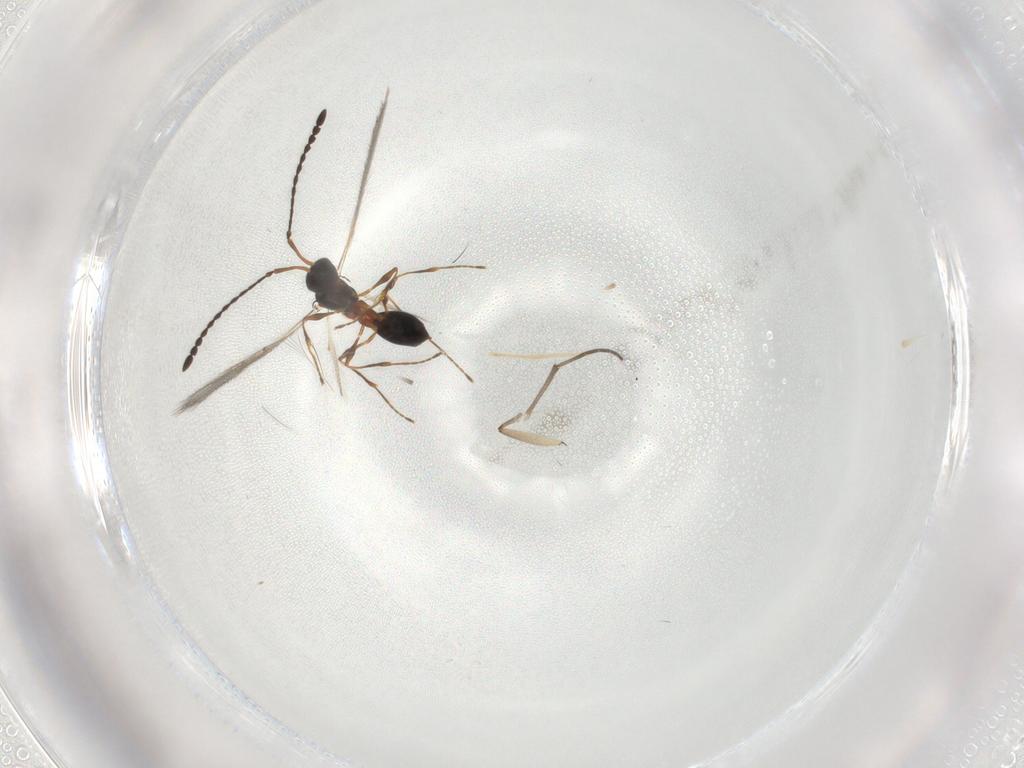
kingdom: Animalia
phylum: Arthropoda
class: Insecta
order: Hymenoptera
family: Diapriidae
